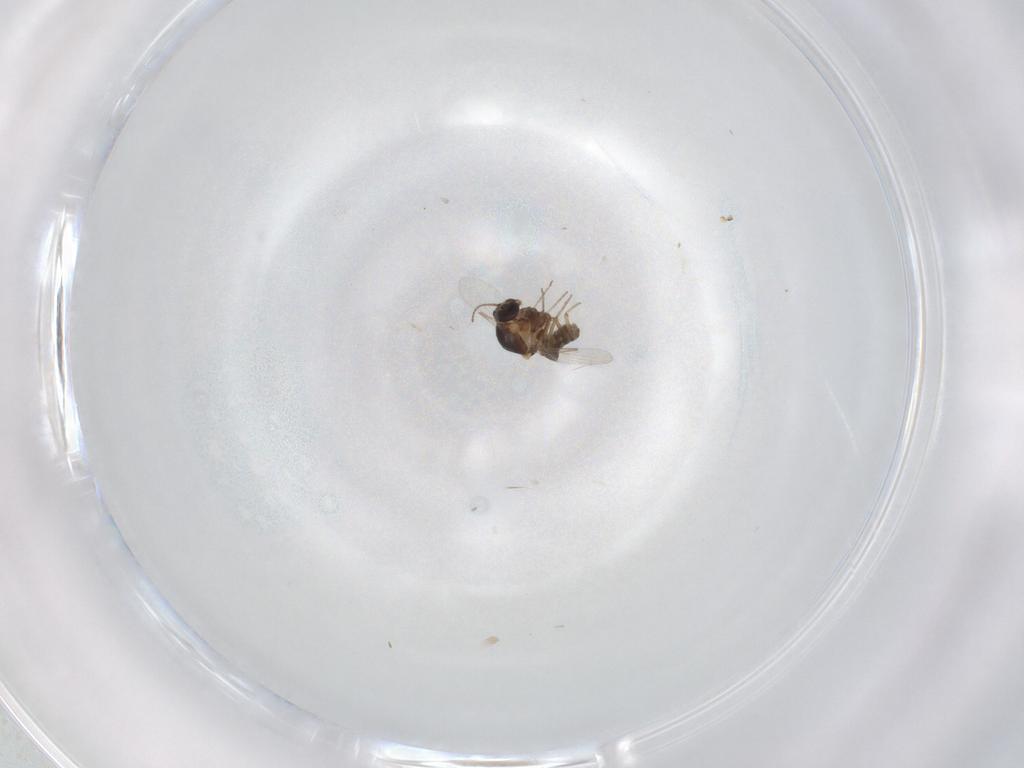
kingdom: Animalia
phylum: Arthropoda
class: Insecta
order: Diptera
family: Ceratopogonidae
